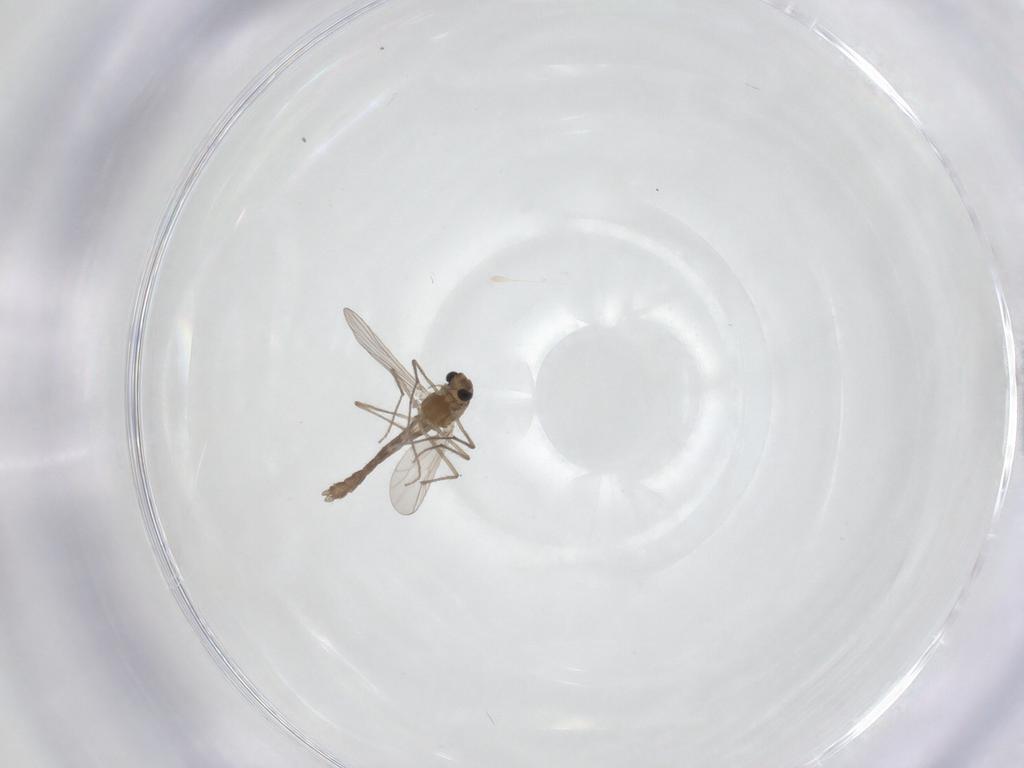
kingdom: Animalia
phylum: Arthropoda
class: Insecta
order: Diptera
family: Chironomidae
